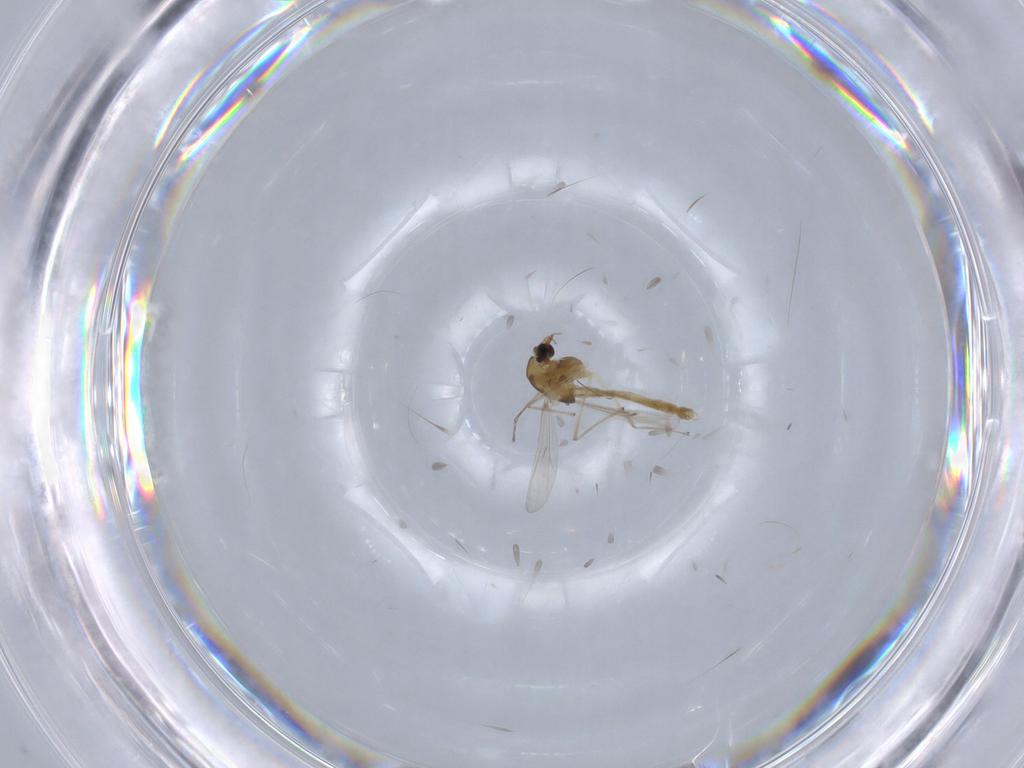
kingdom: Animalia
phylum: Arthropoda
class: Insecta
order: Diptera
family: Chironomidae
